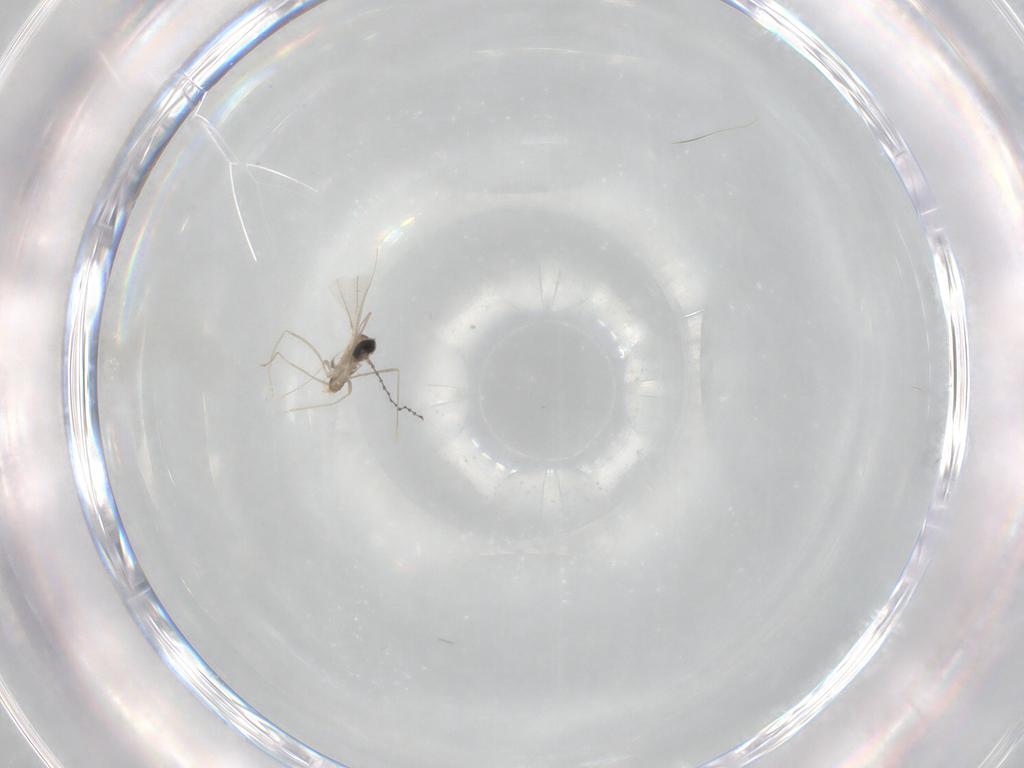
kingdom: Animalia
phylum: Arthropoda
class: Insecta
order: Diptera
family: Cecidomyiidae
